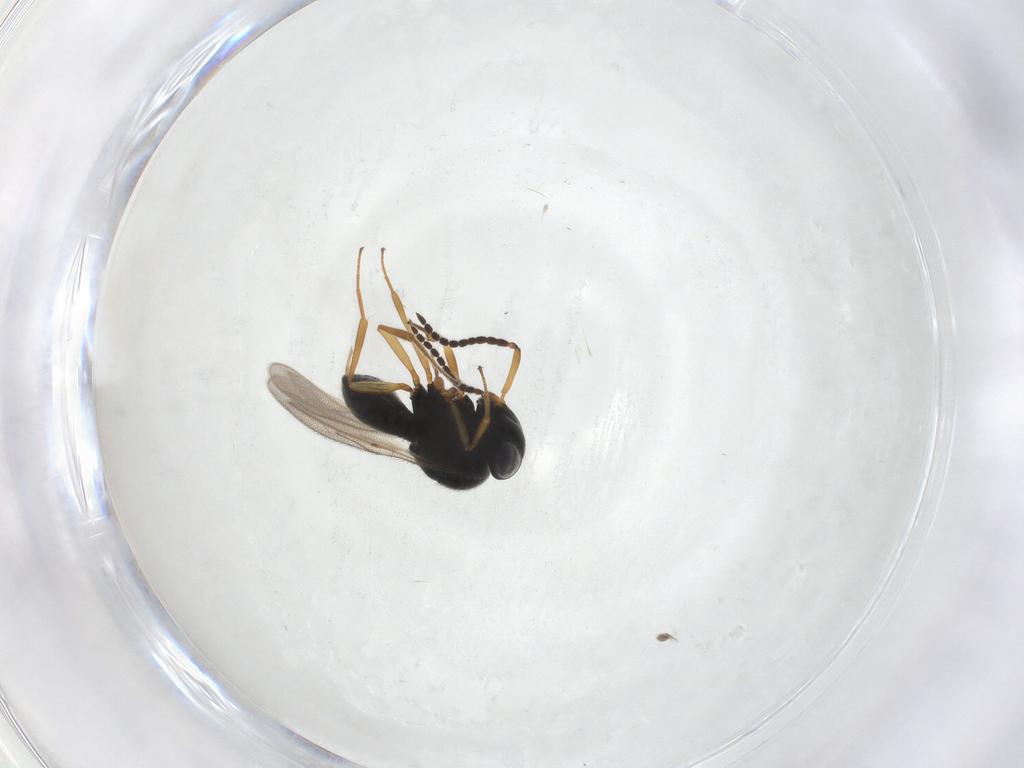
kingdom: Animalia
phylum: Arthropoda
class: Insecta
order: Hymenoptera
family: Scelionidae
